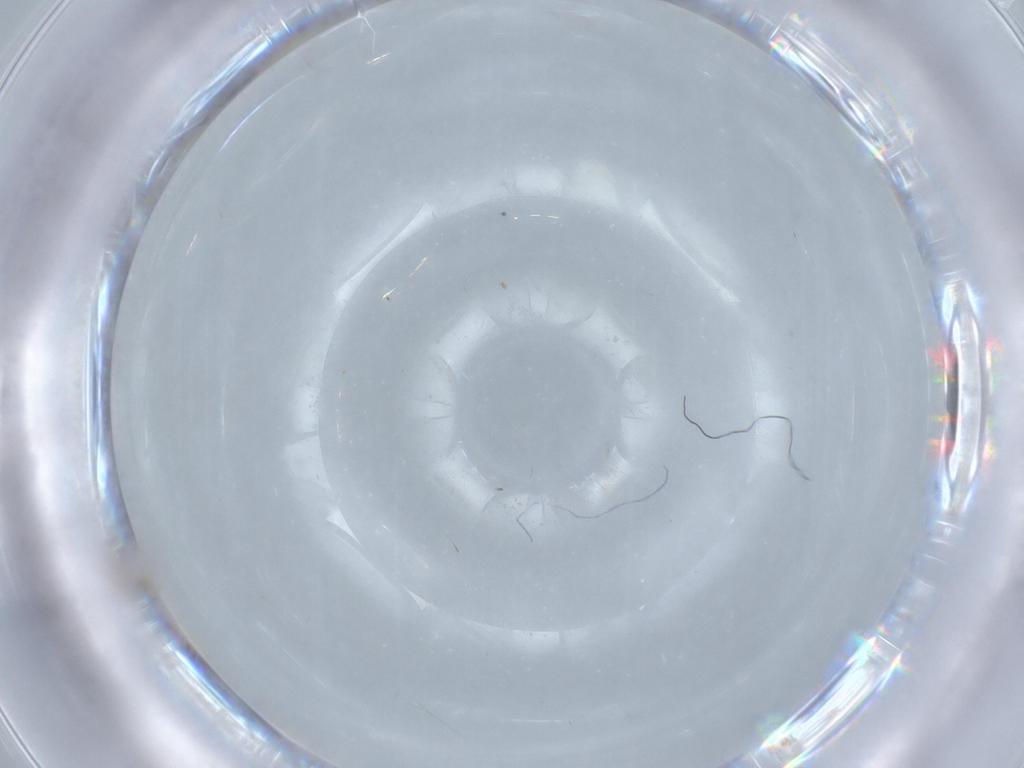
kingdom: Animalia
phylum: Arthropoda
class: Insecta
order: Blattodea
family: Ectobiidae
